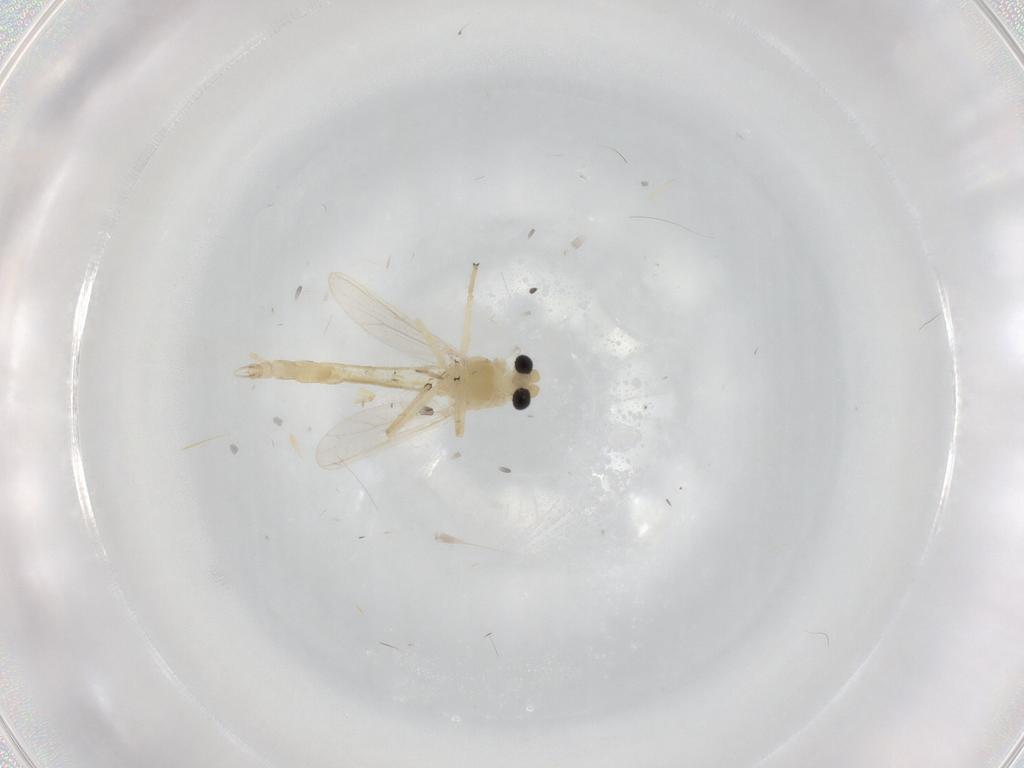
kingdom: Animalia
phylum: Arthropoda
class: Insecta
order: Diptera
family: Chironomidae
